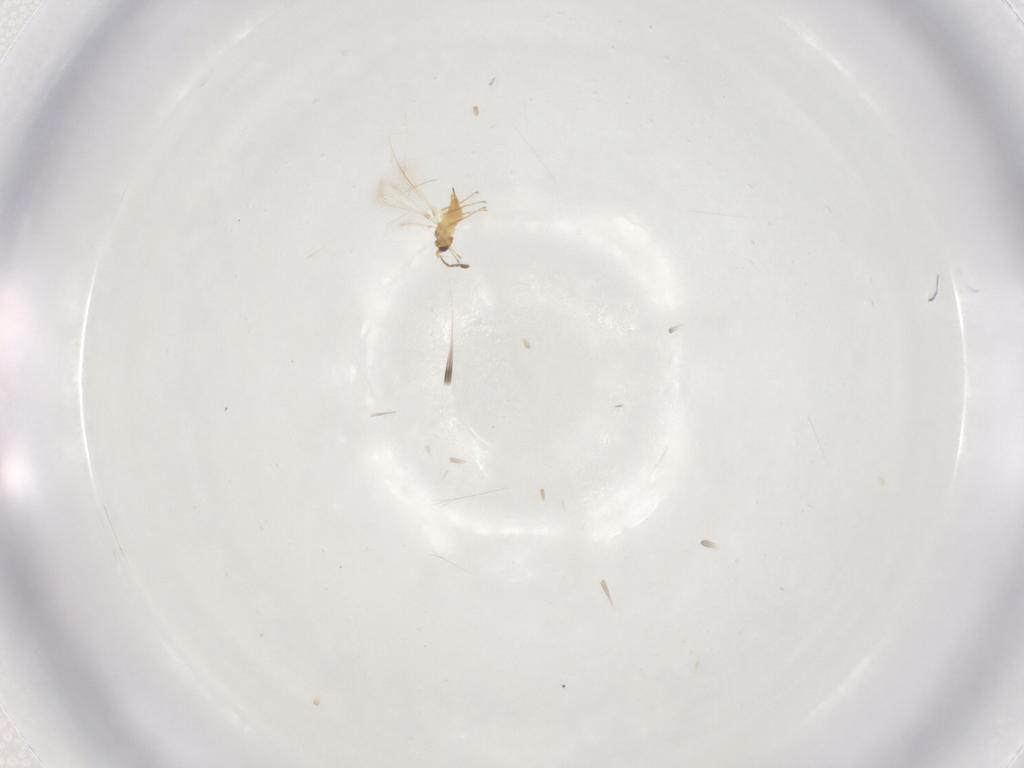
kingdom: Animalia
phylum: Arthropoda
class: Insecta
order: Hymenoptera
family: Mymaridae
